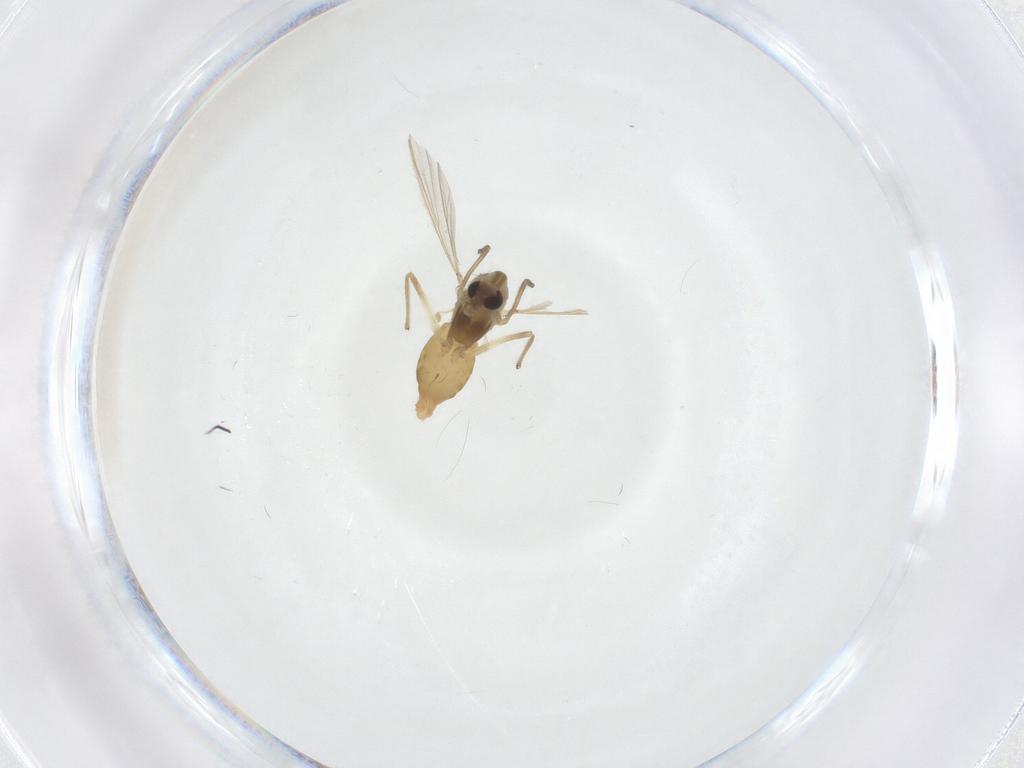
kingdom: Animalia
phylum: Arthropoda
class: Insecta
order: Diptera
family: Chironomidae
